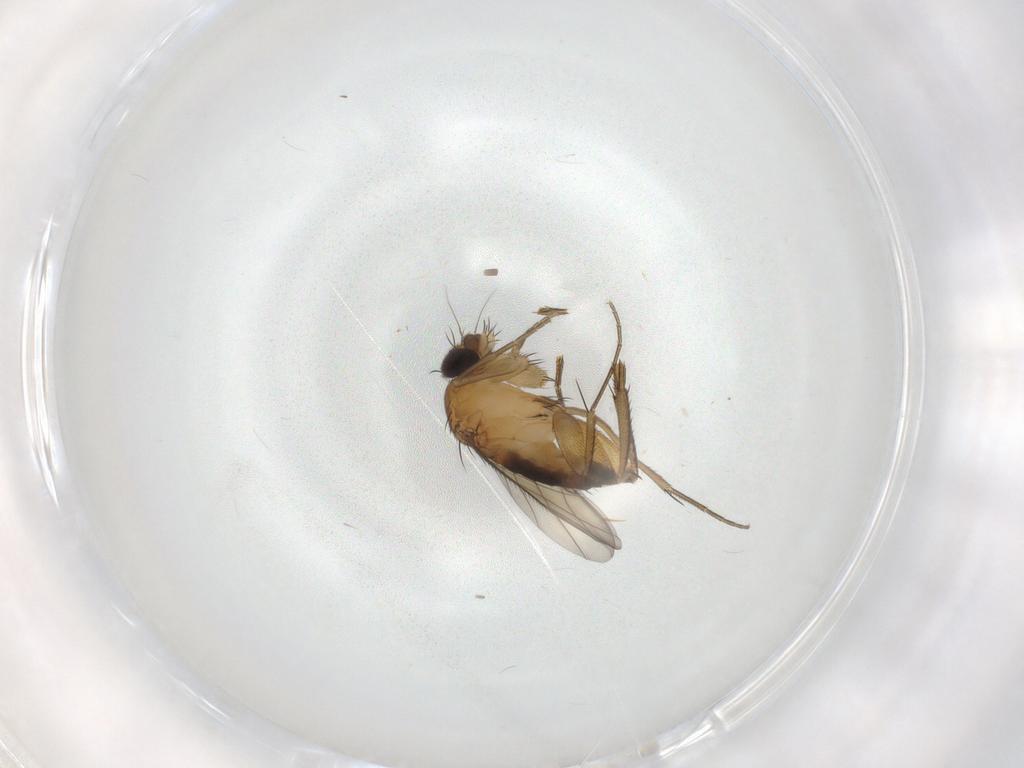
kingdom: Animalia
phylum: Arthropoda
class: Insecta
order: Diptera
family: Phoridae
